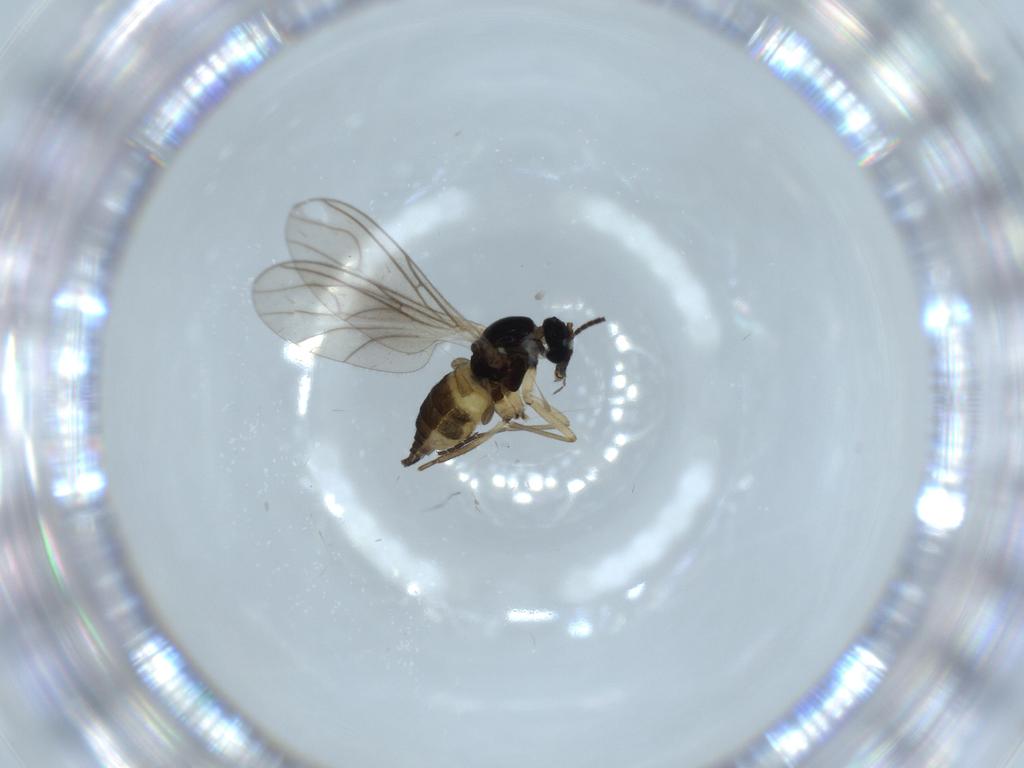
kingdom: Animalia
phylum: Arthropoda
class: Insecta
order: Diptera
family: Sciaridae
